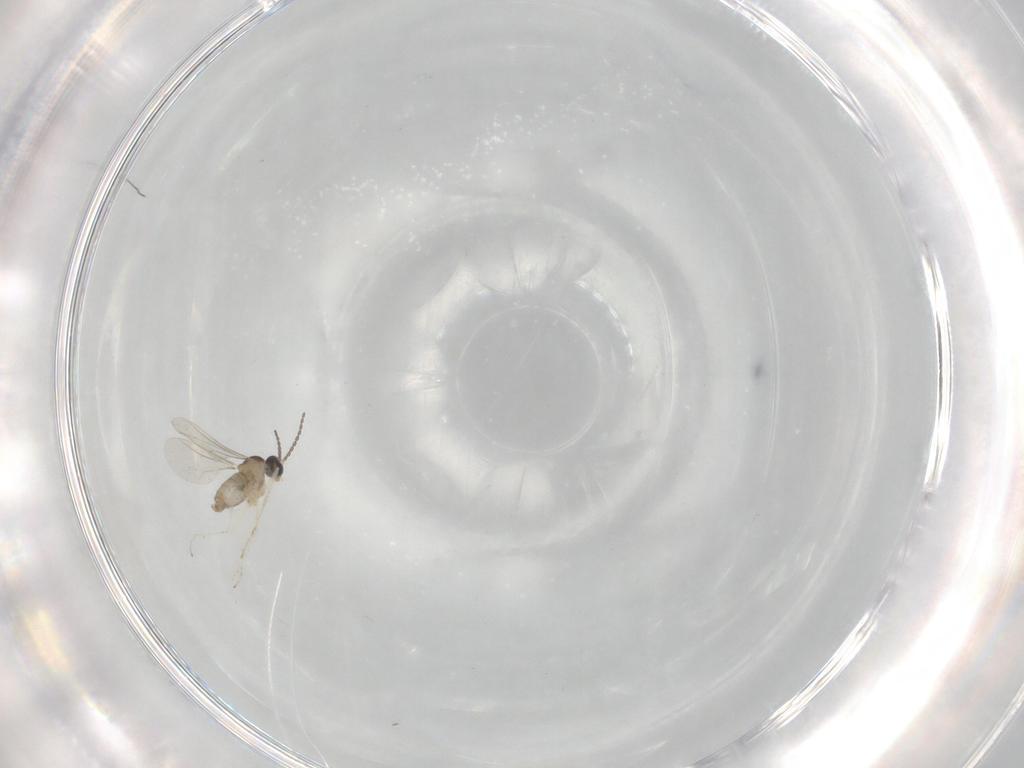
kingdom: Animalia
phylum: Arthropoda
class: Insecta
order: Diptera
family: Cecidomyiidae
